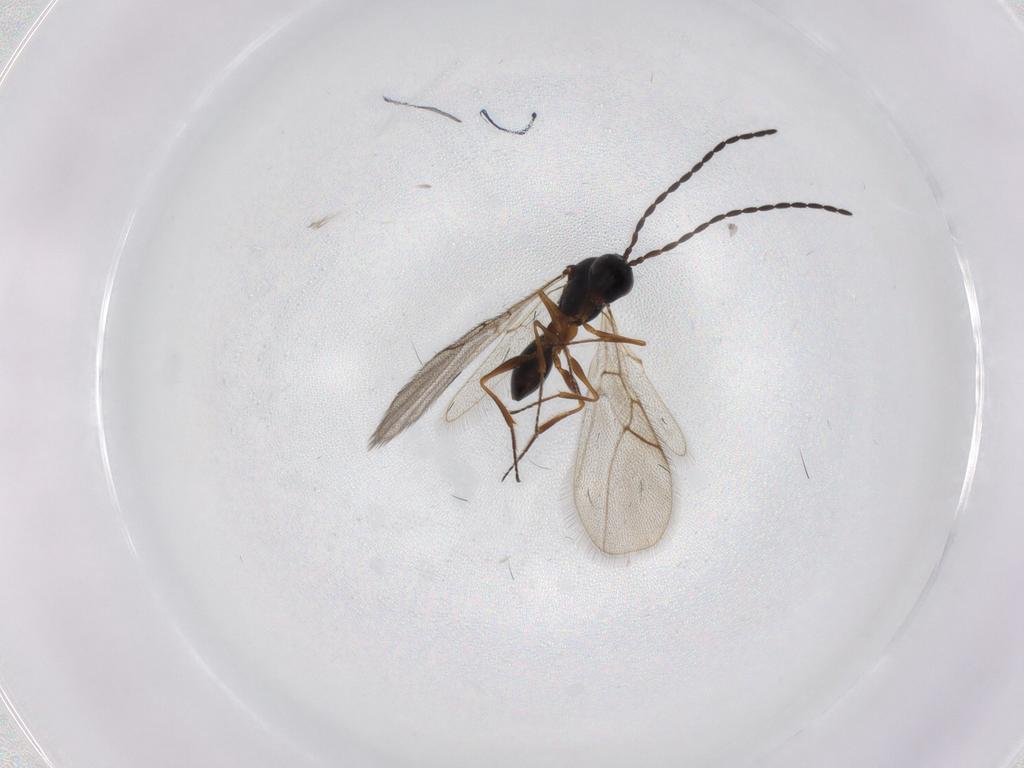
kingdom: Animalia
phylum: Arthropoda
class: Insecta
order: Hymenoptera
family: Figitidae
